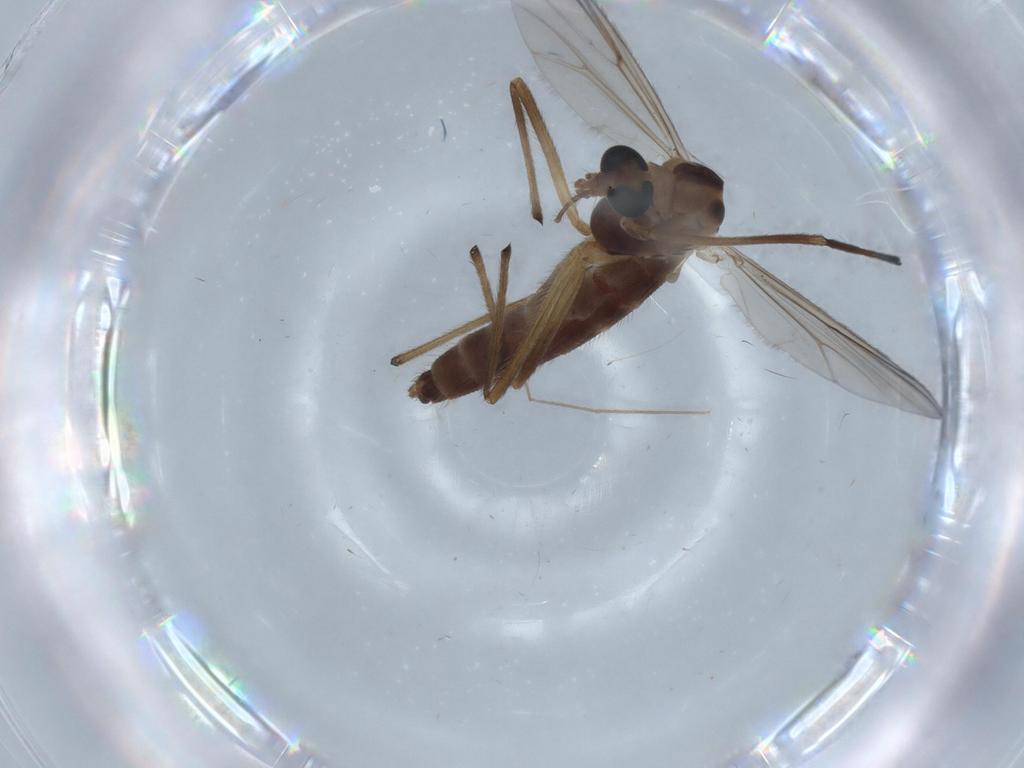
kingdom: Animalia
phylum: Arthropoda
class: Insecta
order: Diptera
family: Chironomidae
